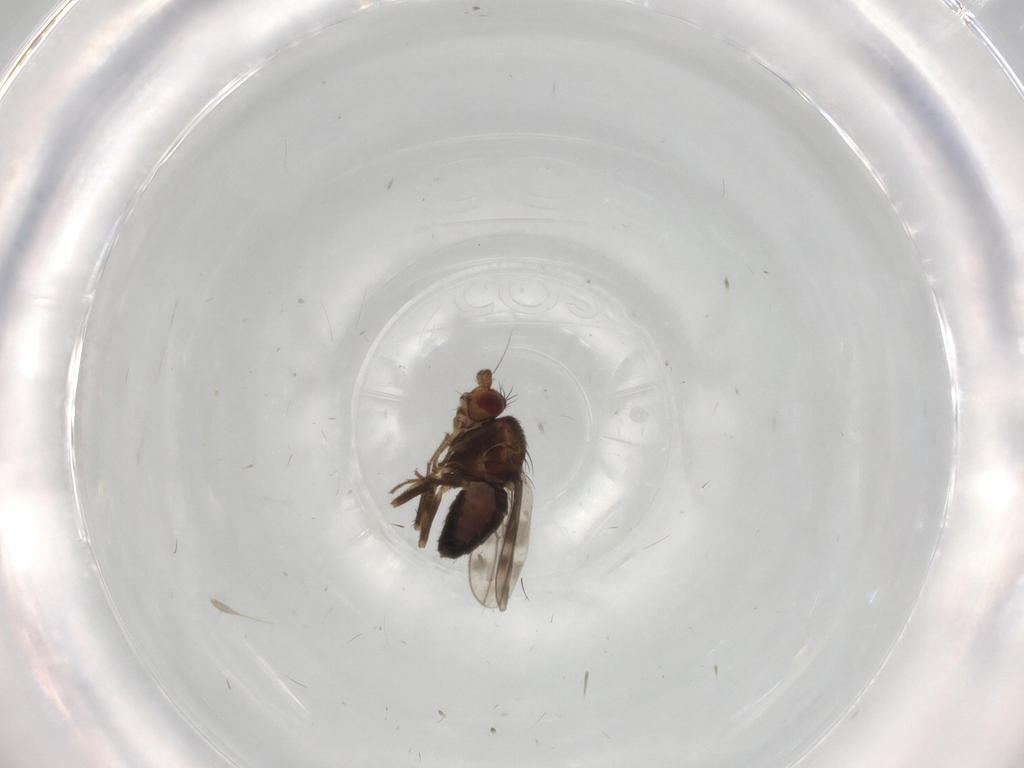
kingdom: Animalia
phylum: Arthropoda
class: Insecta
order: Diptera
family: Sphaeroceridae
